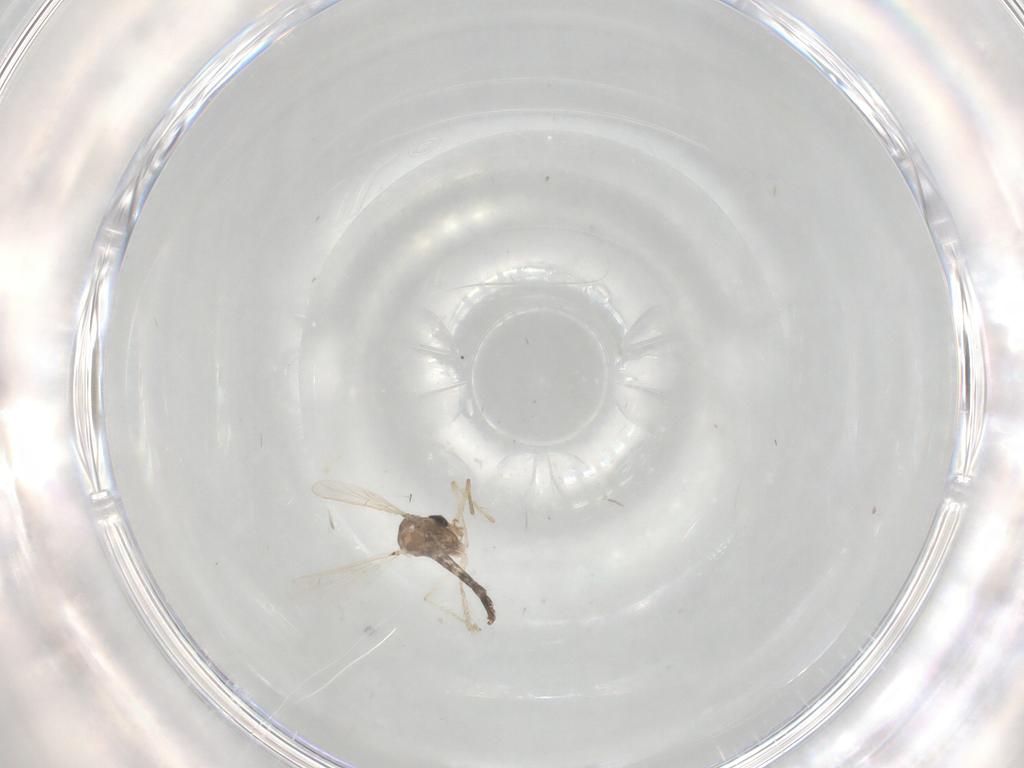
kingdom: Animalia
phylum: Arthropoda
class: Insecta
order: Diptera
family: Chironomidae
